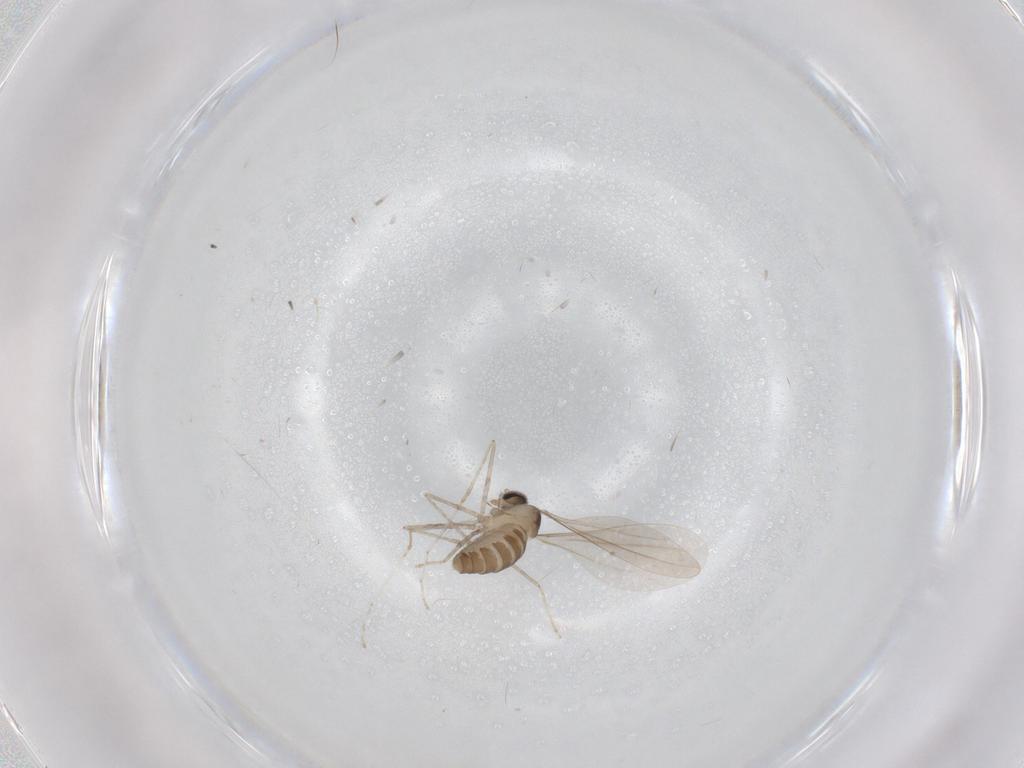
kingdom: Animalia
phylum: Arthropoda
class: Insecta
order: Diptera
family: Cecidomyiidae
